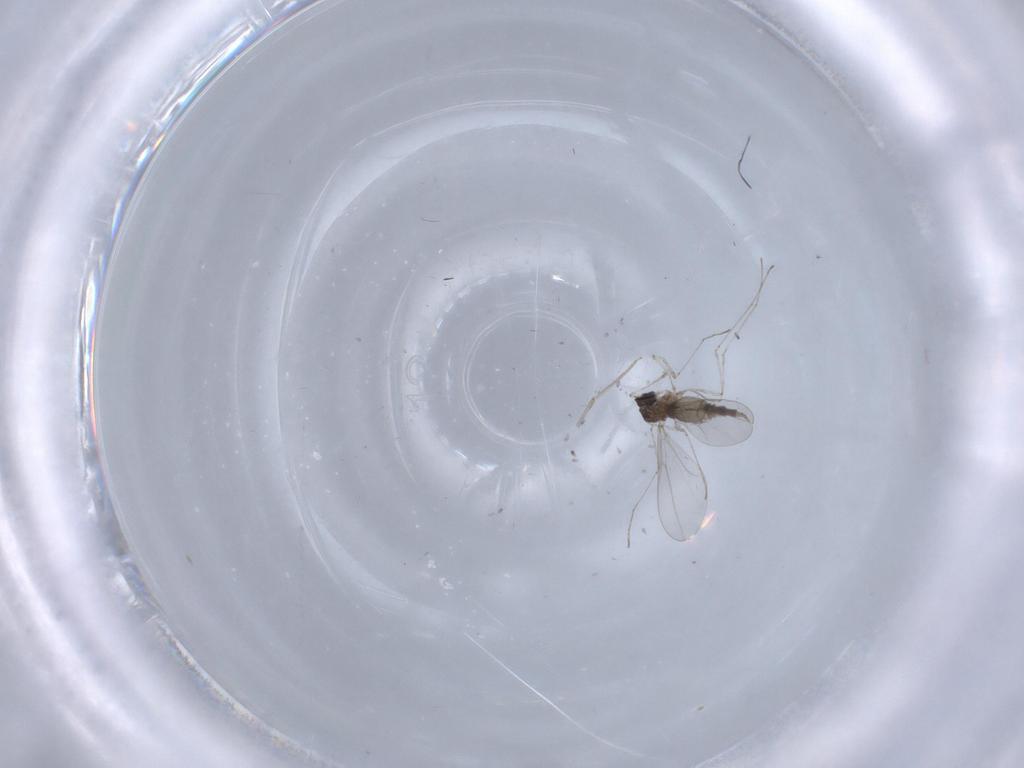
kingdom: Animalia
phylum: Arthropoda
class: Insecta
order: Diptera
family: Cecidomyiidae
